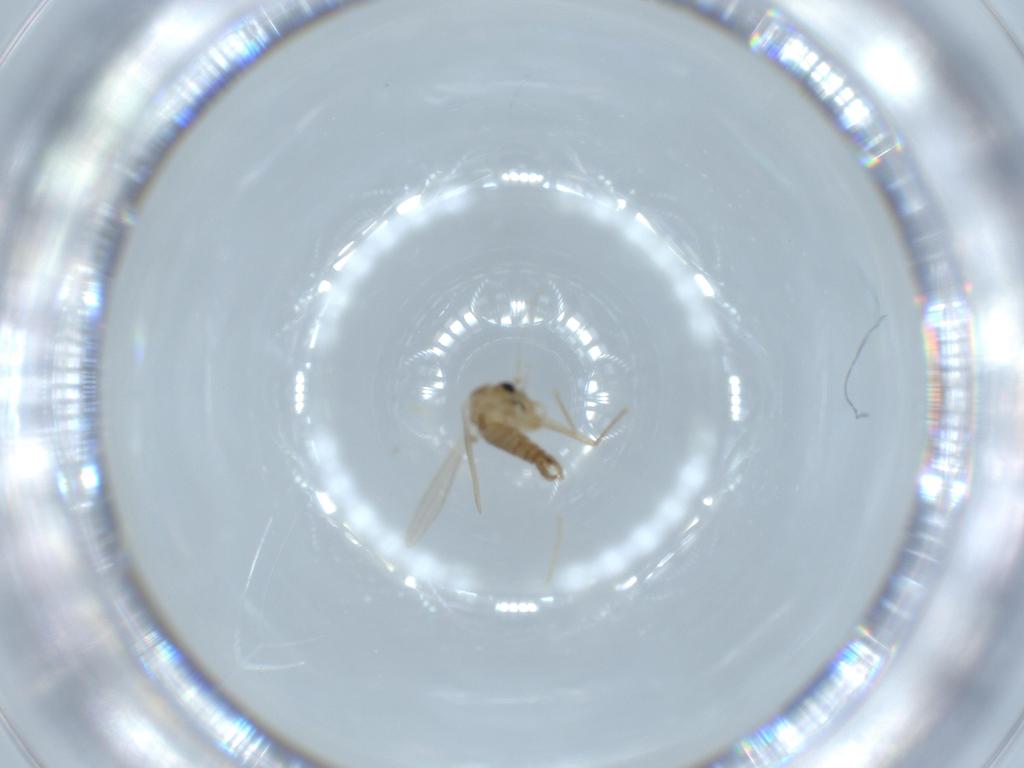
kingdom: Animalia
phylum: Arthropoda
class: Insecta
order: Diptera
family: Psychodidae
